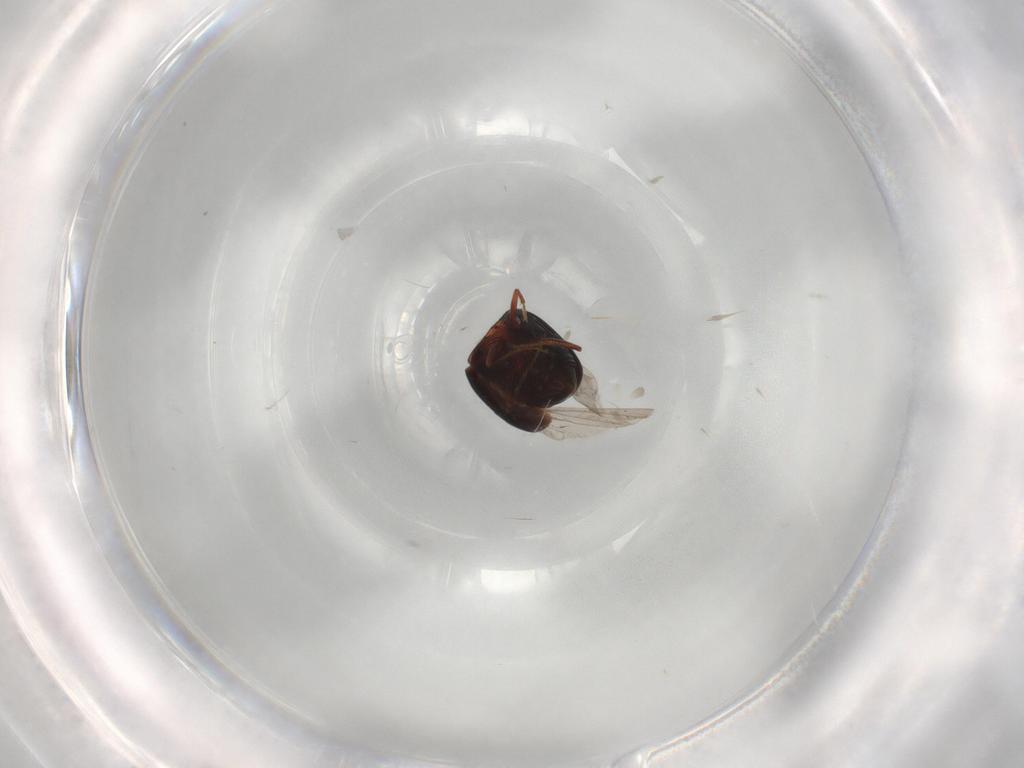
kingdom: Animalia
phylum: Arthropoda
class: Insecta
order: Coleoptera
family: Staphylinidae
